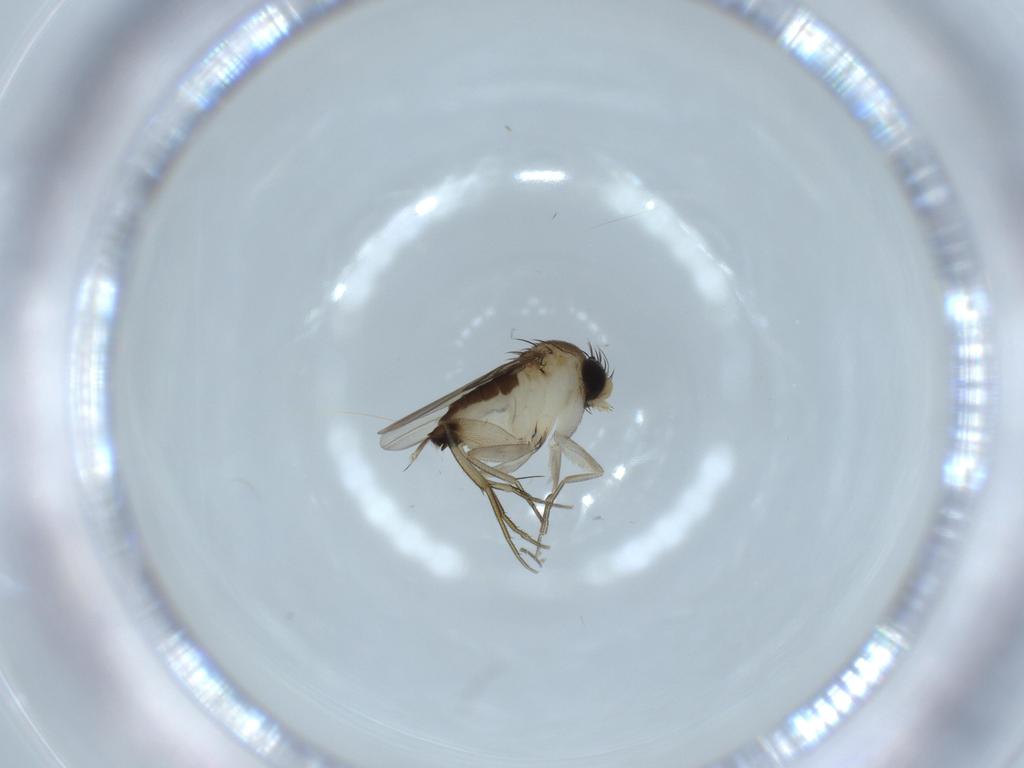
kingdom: Animalia
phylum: Arthropoda
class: Insecta
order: Diptera
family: Phoridae
